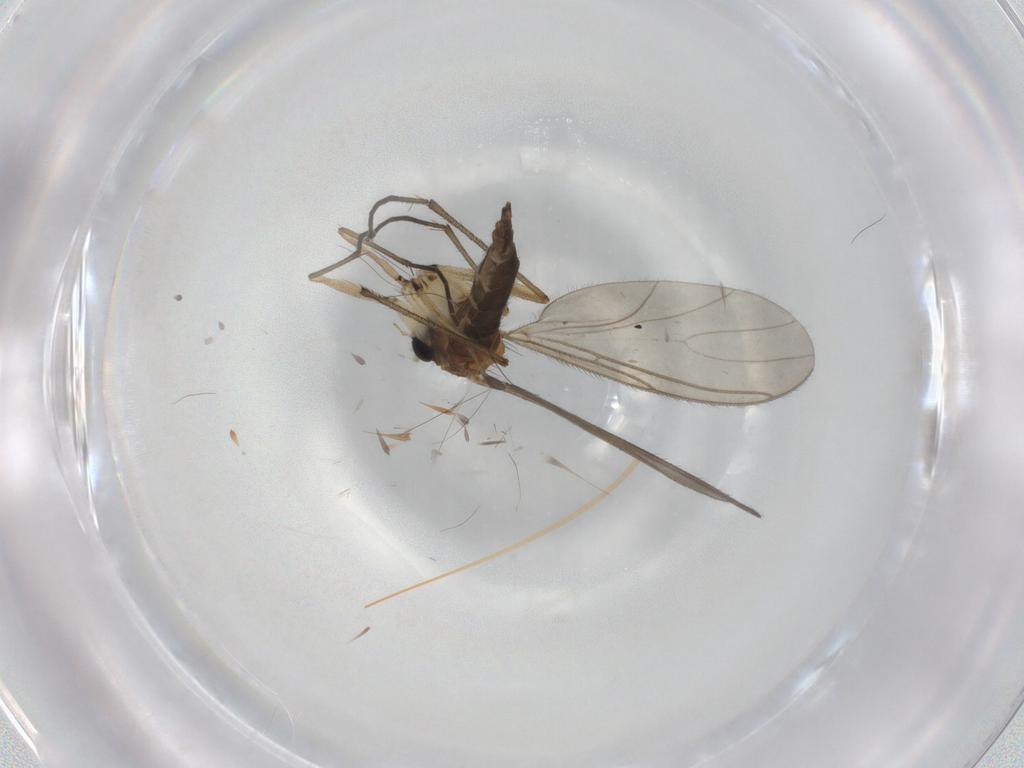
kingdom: Animalia
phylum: Arthropoda
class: Insecta
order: Diptera
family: Sciaridae
